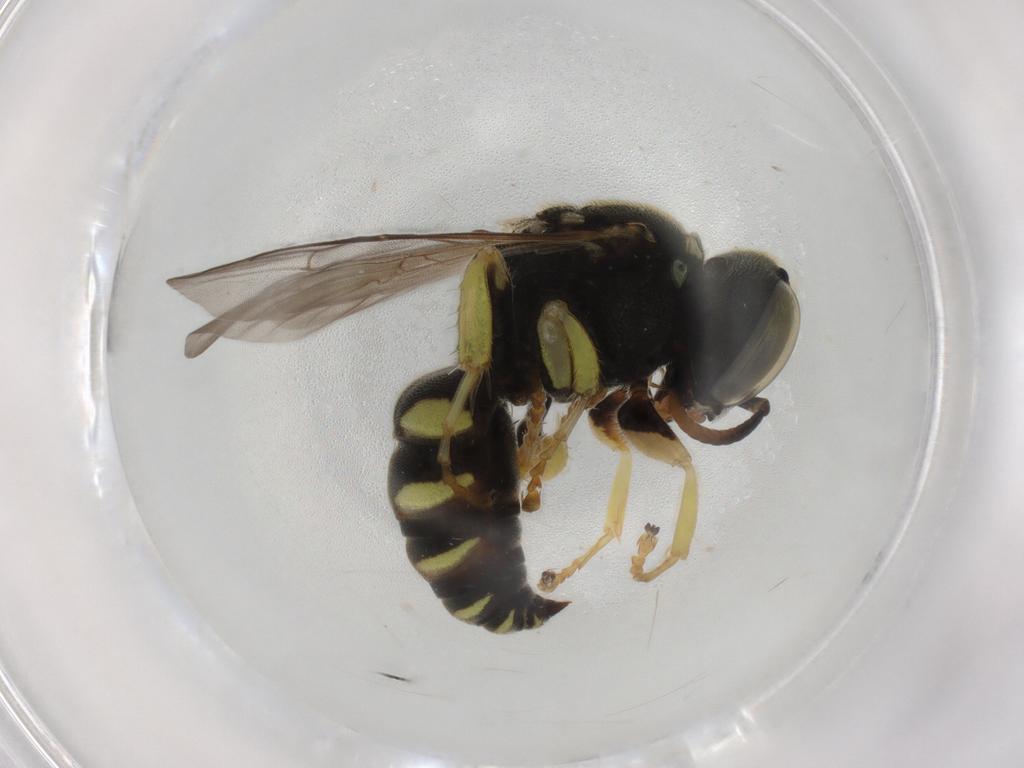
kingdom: Animalia
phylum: Arthropoda
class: Insecta
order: Hymenoptera
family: Crabronidae
